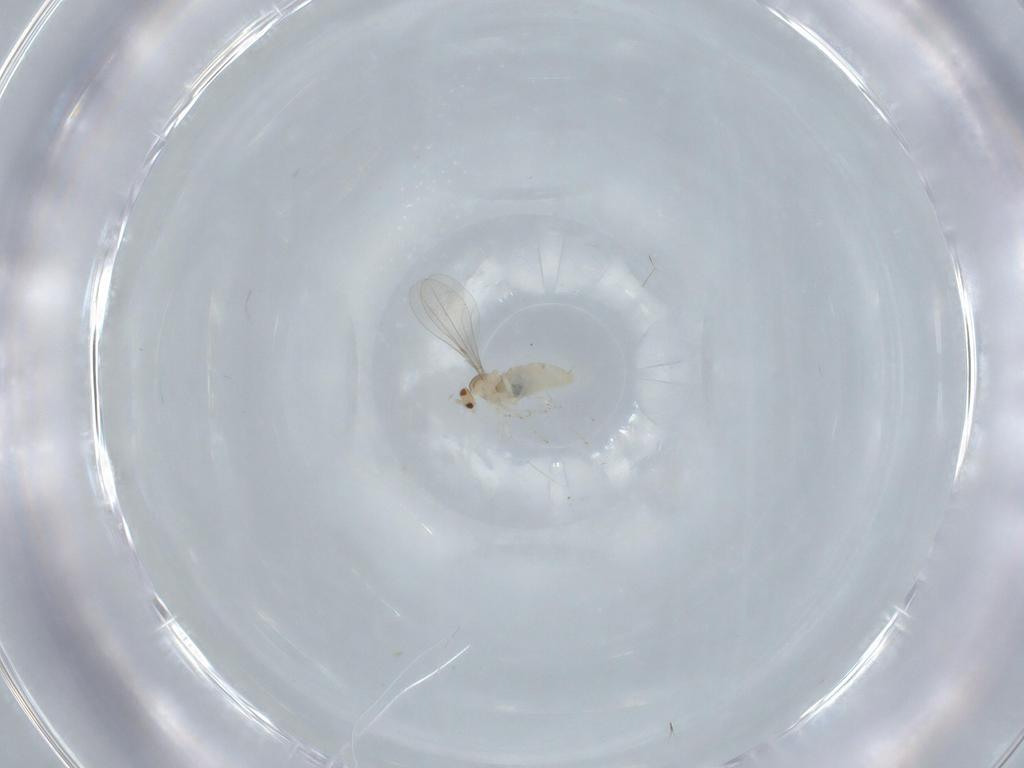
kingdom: Animalia
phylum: Arthropoda
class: Insecta
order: Diptera
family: Cecidomyiidae
